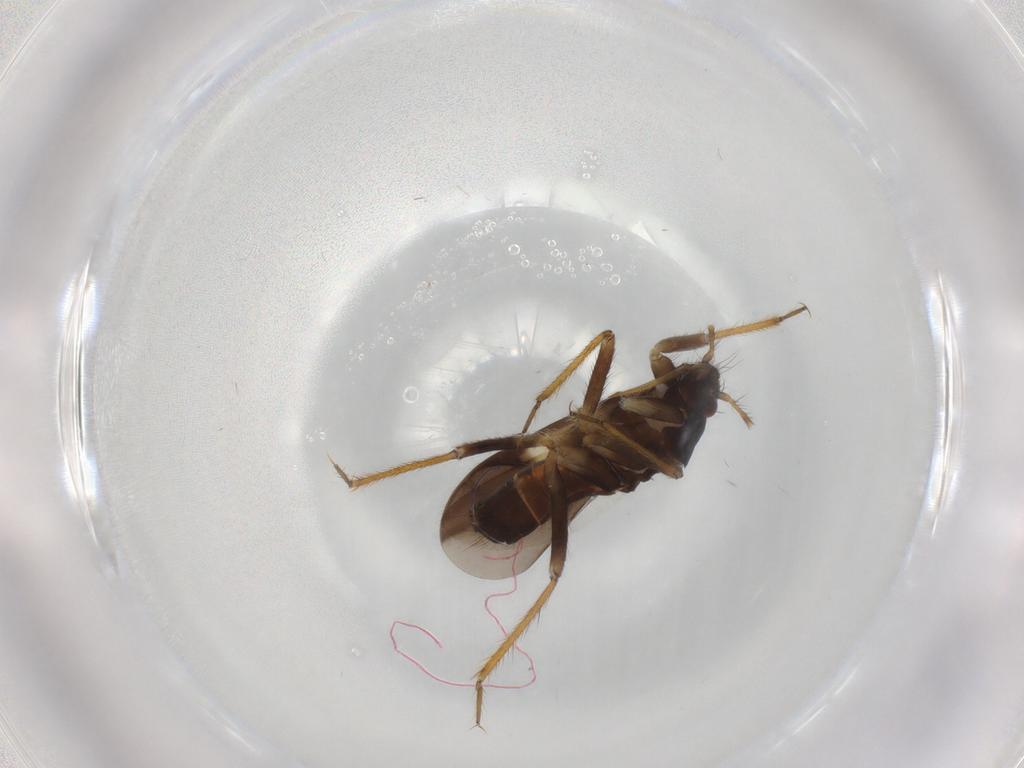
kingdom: Animalia
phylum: Arthropoda
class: Insecta
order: Hemiptera
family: Ceratocombidae
